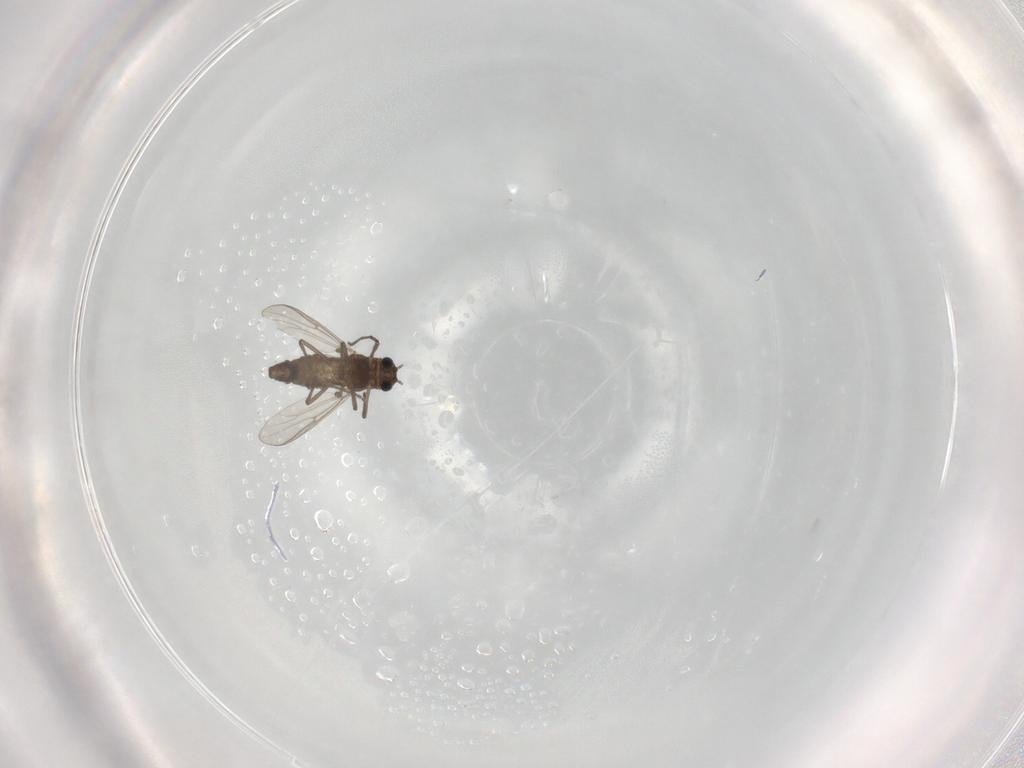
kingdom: Animalia
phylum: Arthropoda
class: Insecta
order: Diptera
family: Chironomidae
